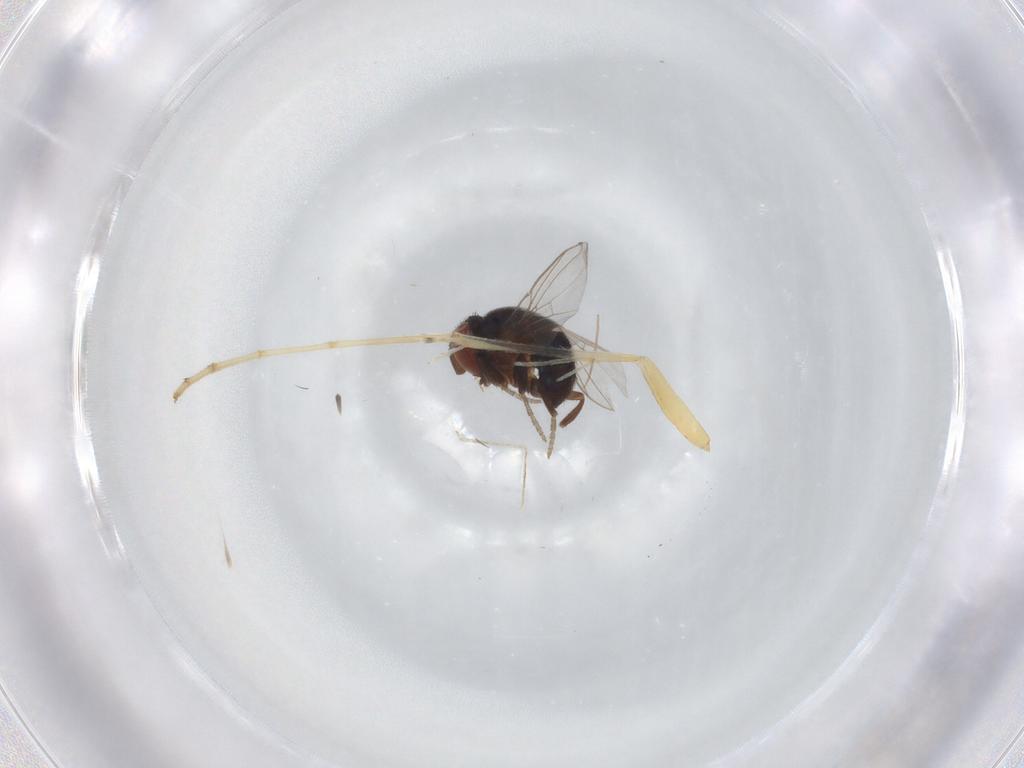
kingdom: Animalia
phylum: Arthropoda
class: Insecta
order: Diptera
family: Cryptochetidae
